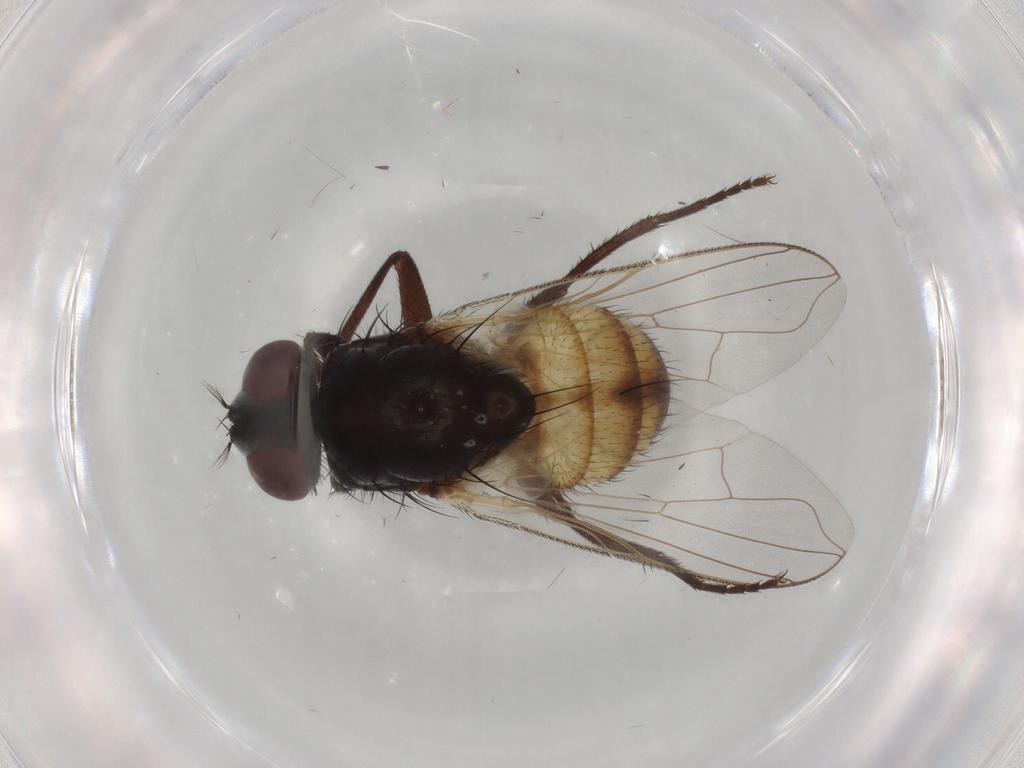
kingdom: Animalia
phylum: Arthropoda
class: Insecta
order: Diptera
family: Muscidae
